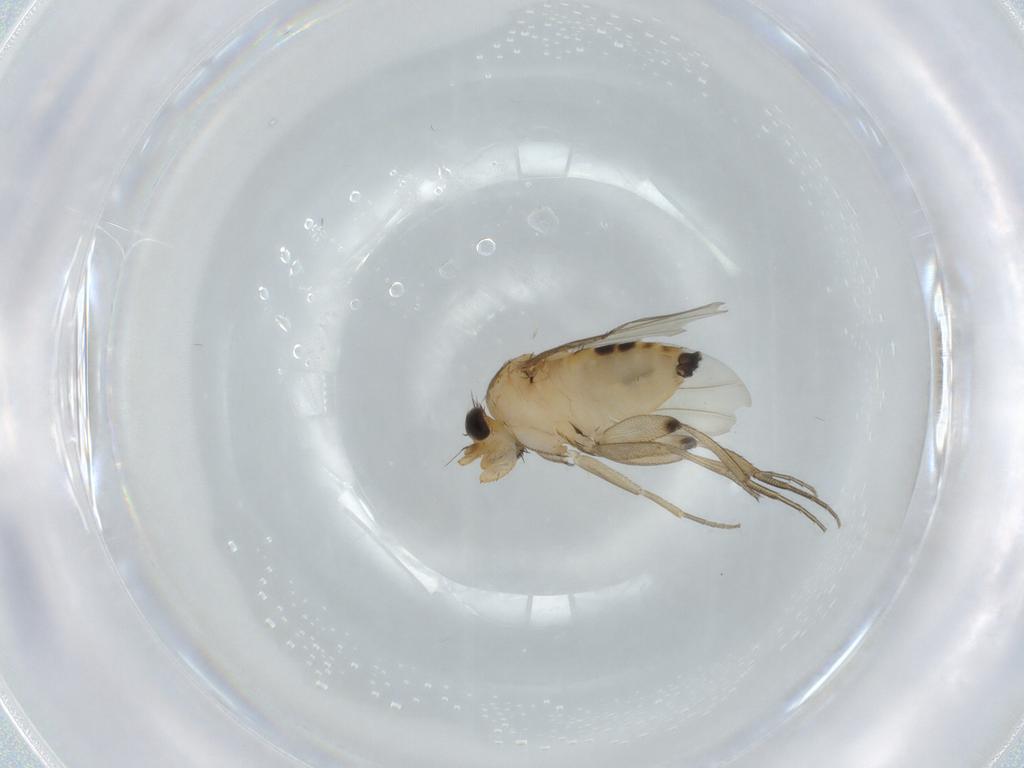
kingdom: Animalia
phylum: Arthropoda
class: Insecta
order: Diptera
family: Phoridae
